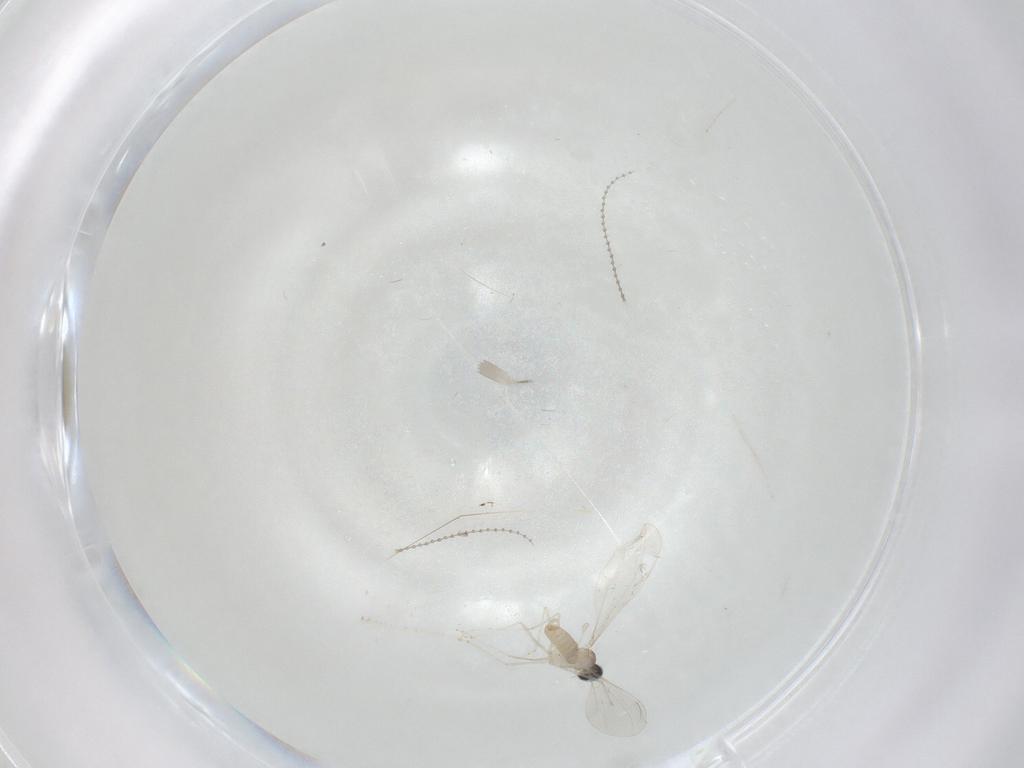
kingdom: Animalia
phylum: Arthropoda
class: Insecta
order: Diptera
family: Cecidomyiidae
